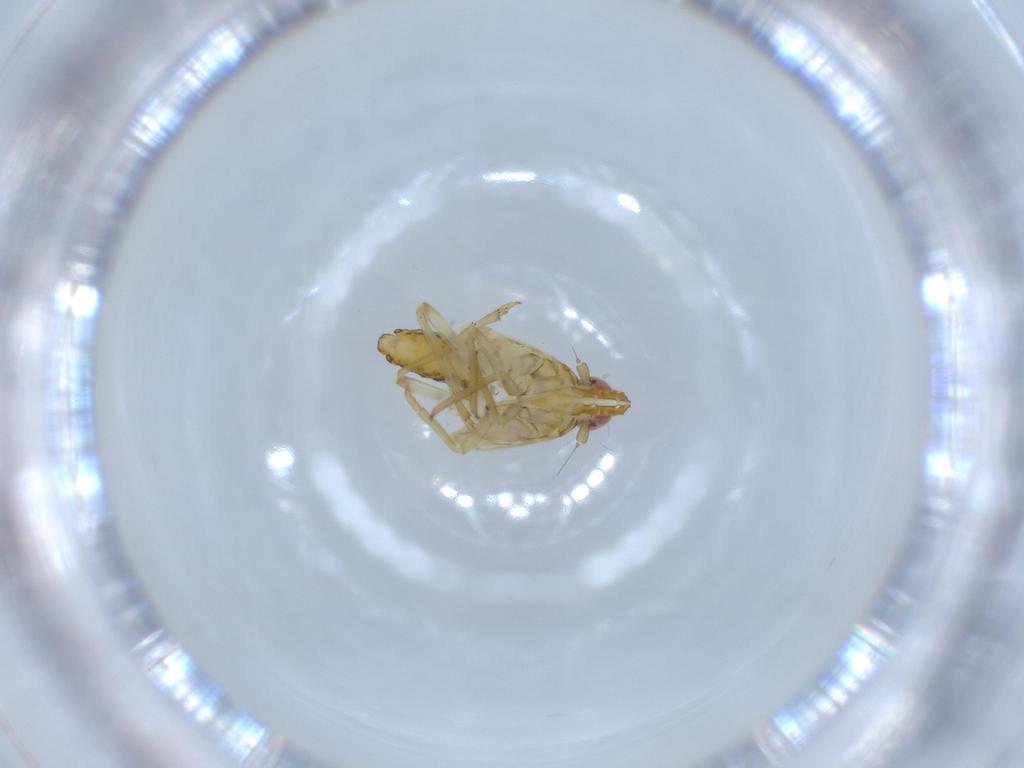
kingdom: Animalia
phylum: Arthropoda
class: Insecta
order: Hemiptera
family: Delphacidae
